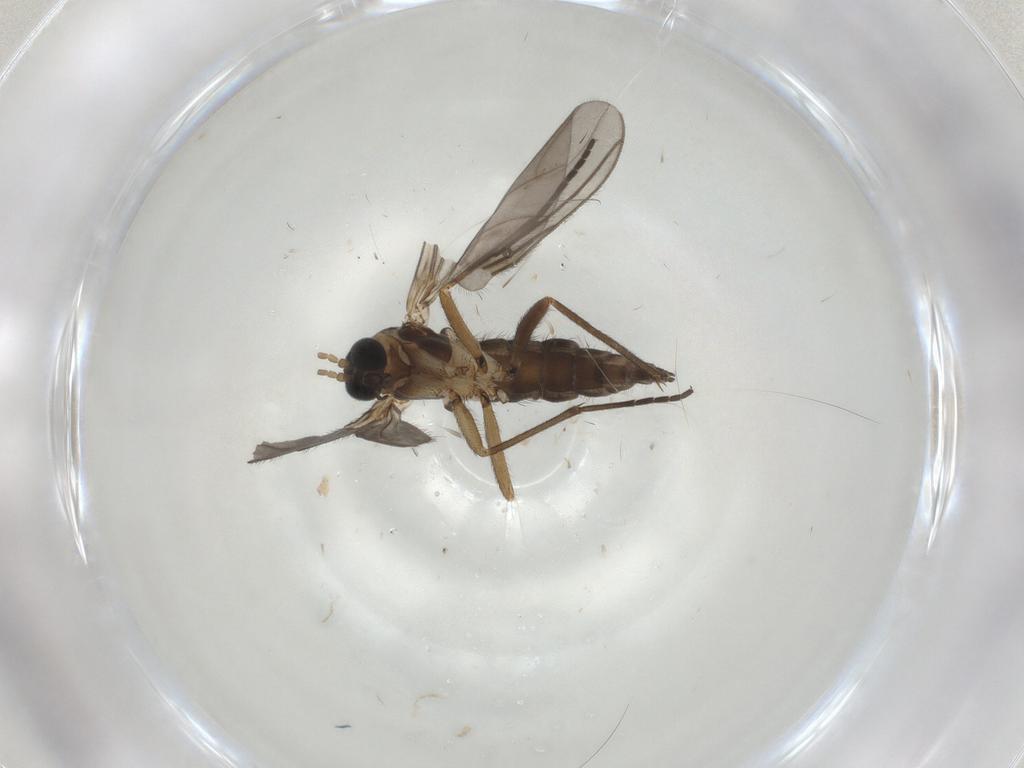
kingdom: Animalia
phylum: Arthropoda
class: Insecta
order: Diptera
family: Sciaridae
